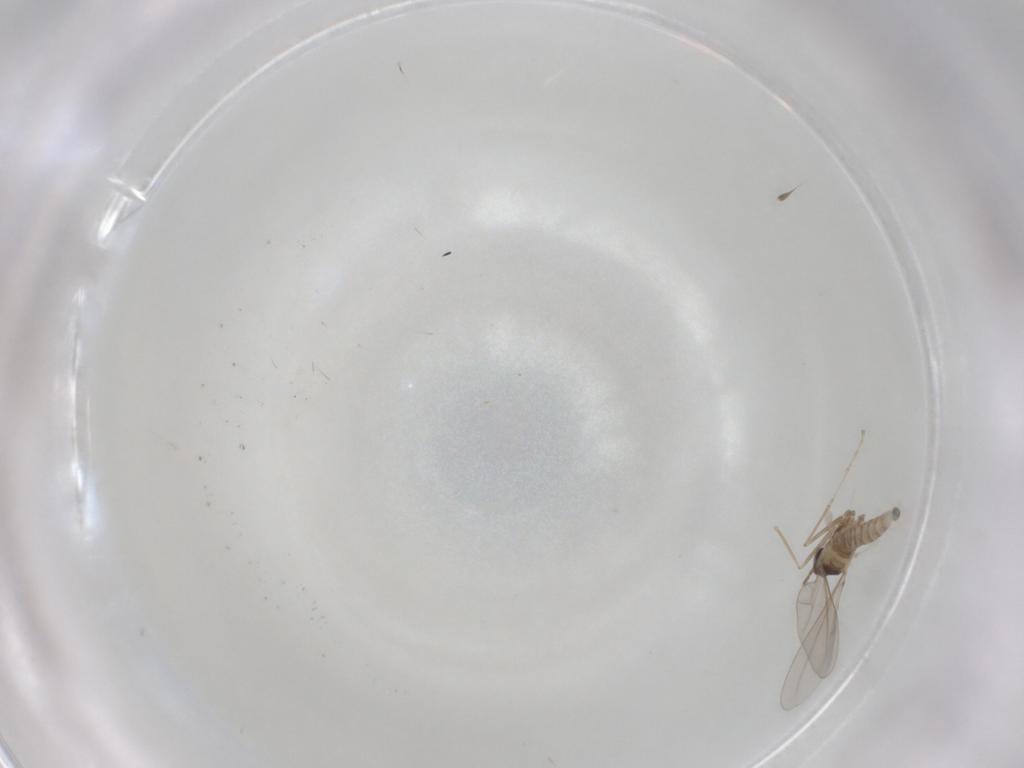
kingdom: Animalia
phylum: Arthropoda
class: Insecta
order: Diptera
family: Cecidomyiidae
